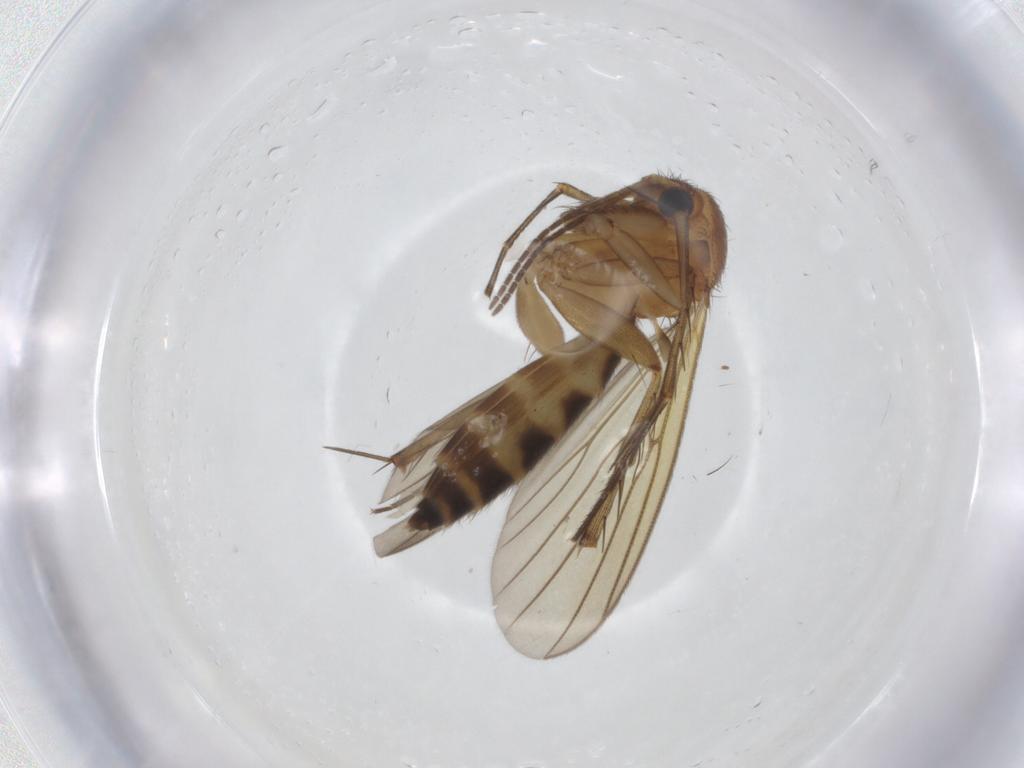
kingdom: Animalia
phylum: Arthropoda
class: Insecta
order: Diptera
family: Mycetophilidae
